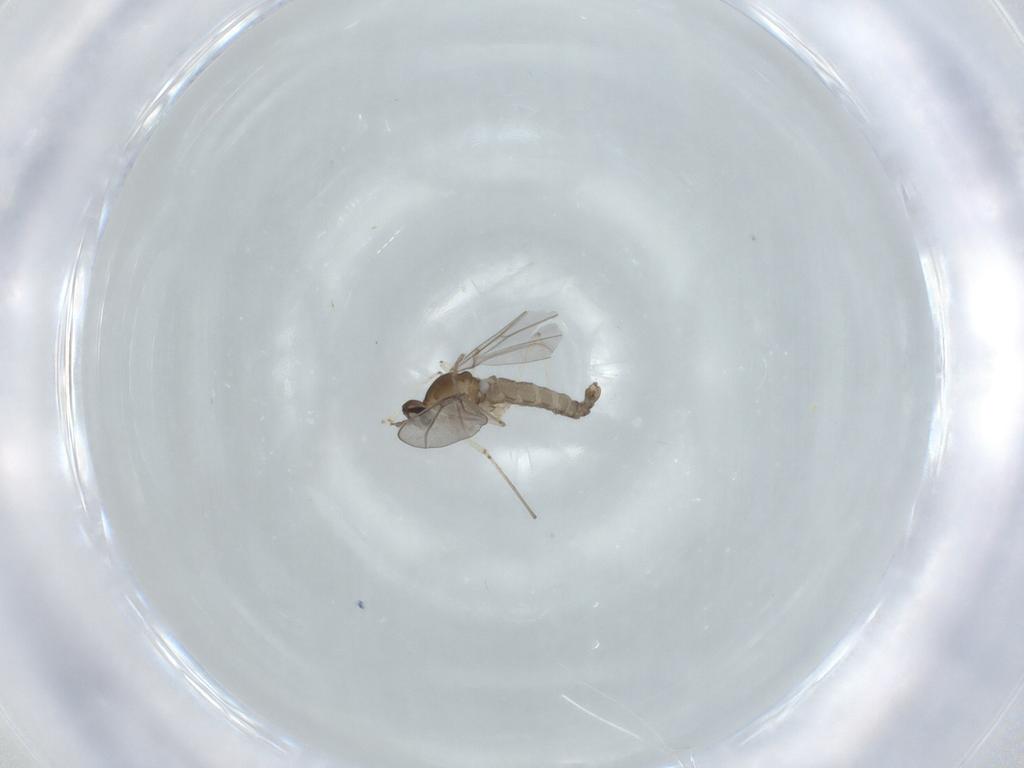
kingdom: Animalia
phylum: Arthropoda
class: Insecta
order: Diptera
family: Cecidomyiidae
